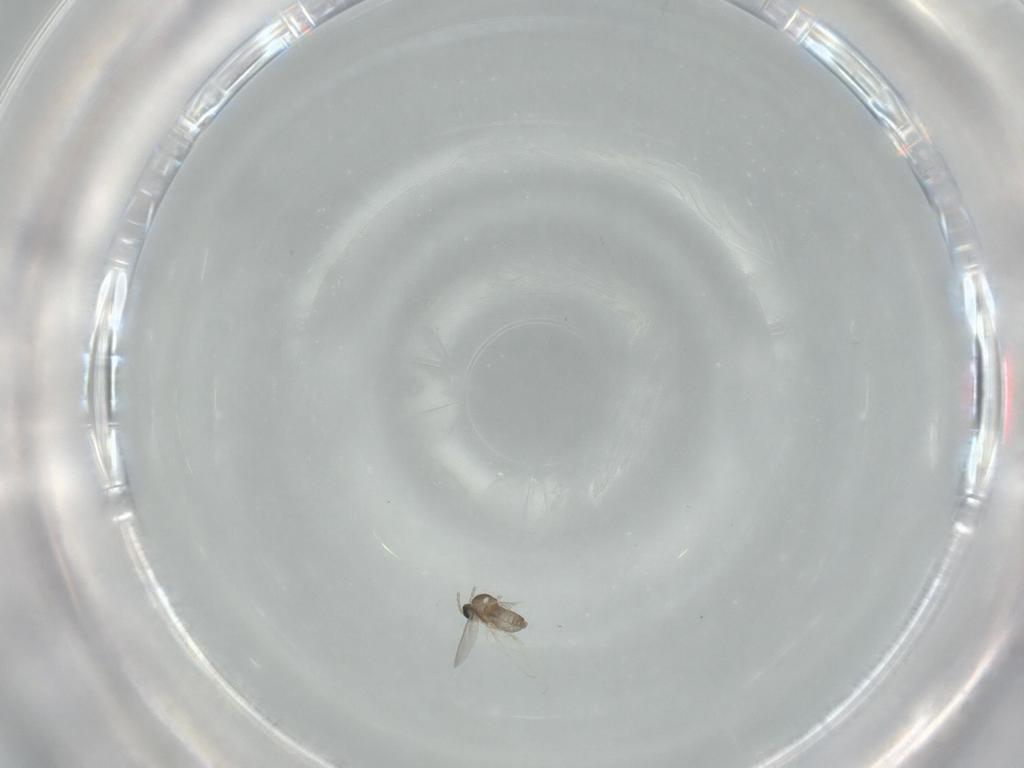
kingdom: Animalia
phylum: Arthropoda
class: Insecta
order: Diptera
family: Cecidomyiidae
